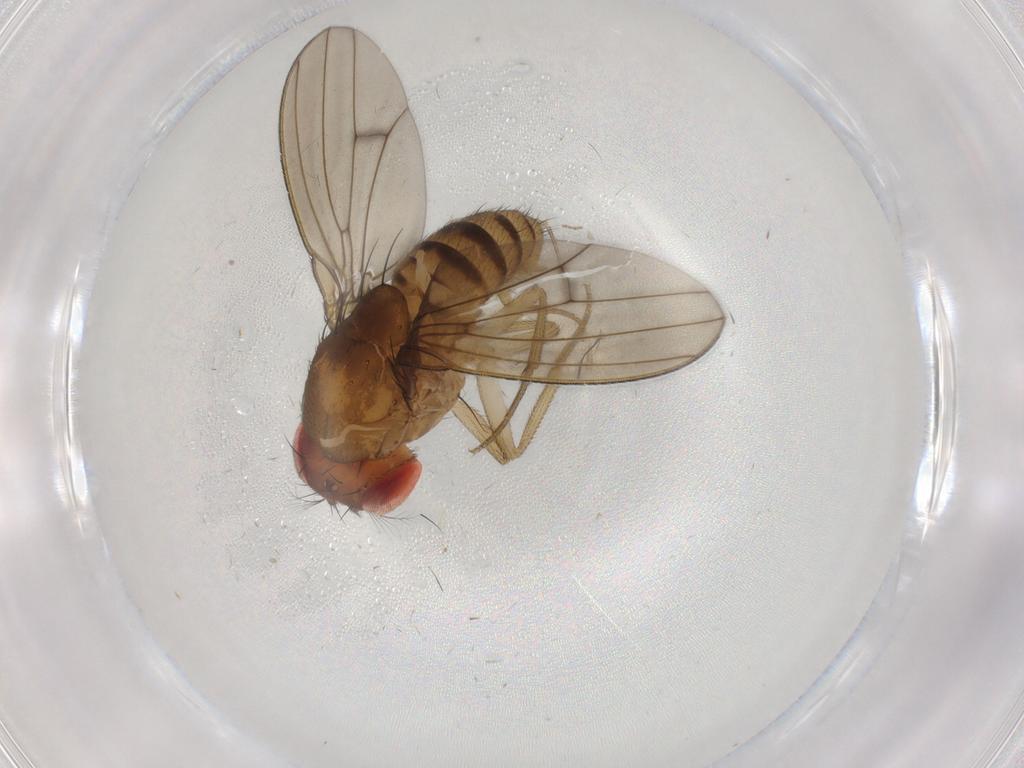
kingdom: Animalia
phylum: Arthropoda
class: Insecta
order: Diptera
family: Drosophilidae
